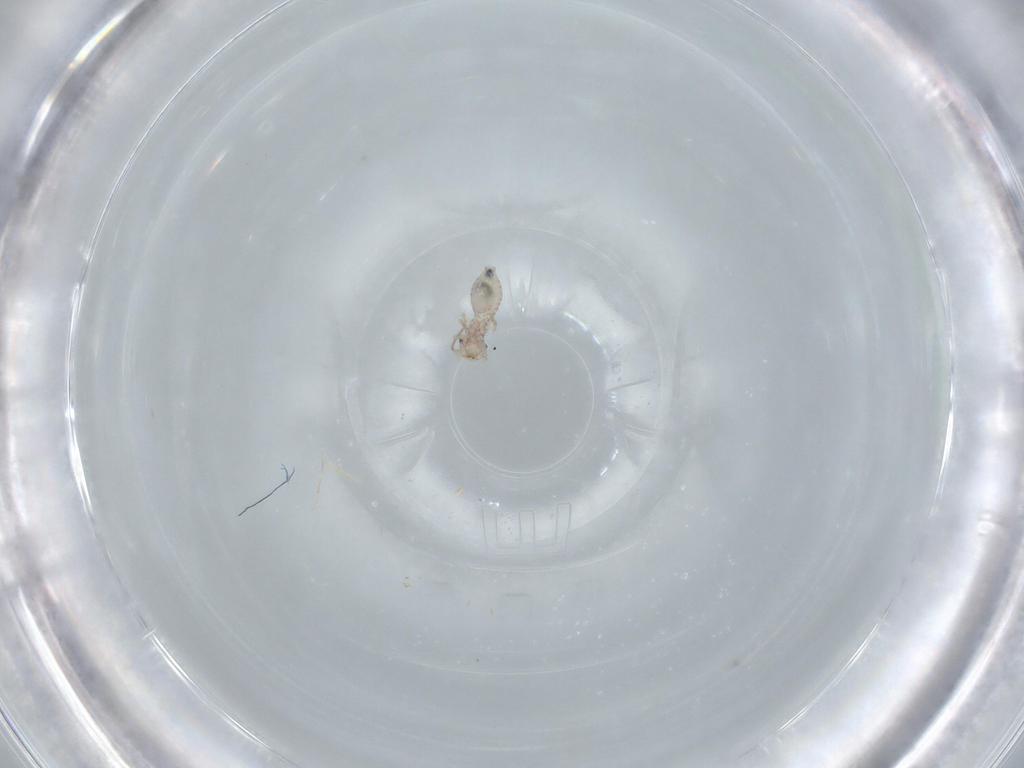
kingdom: Animalia
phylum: Arthropoda
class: Insecta
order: Psocodea
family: Caeciliusidae
